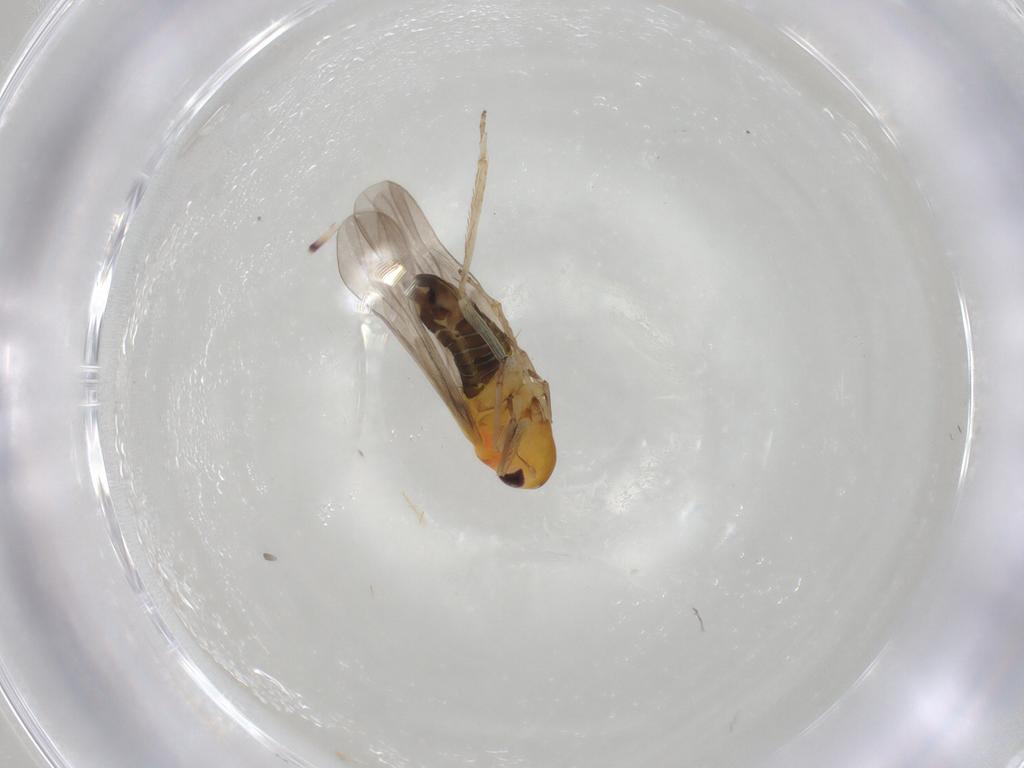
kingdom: Animalia
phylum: Arthropoda
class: Insecta
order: Hemiptera
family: Cicadellidae
